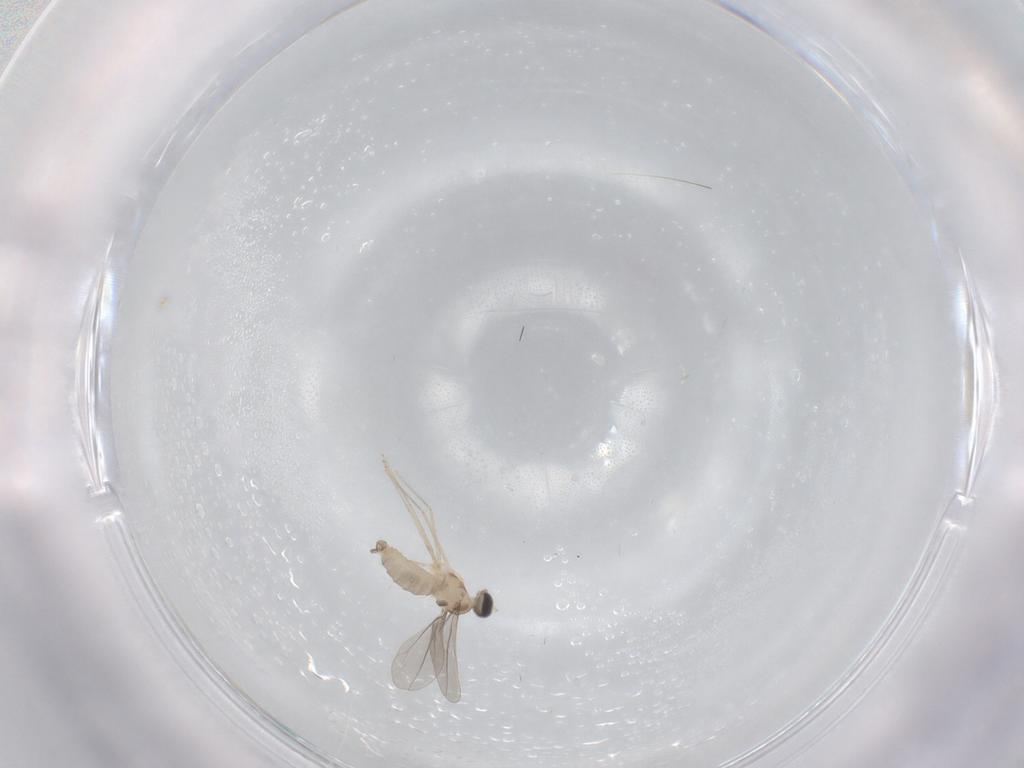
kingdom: Animalia
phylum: Arthropoda
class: Insecta
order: Diptera
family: Cecidomyiidae
